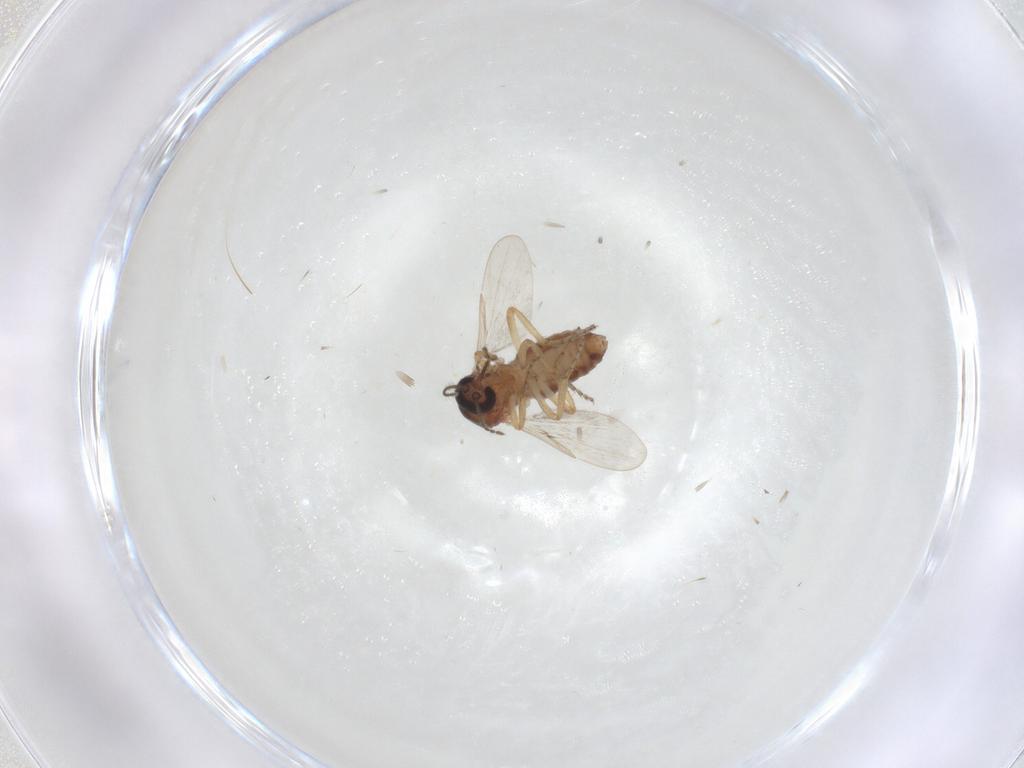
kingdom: Animalia
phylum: Arthropoda
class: Insecta
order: Diptera
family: Ceratopogonidae
